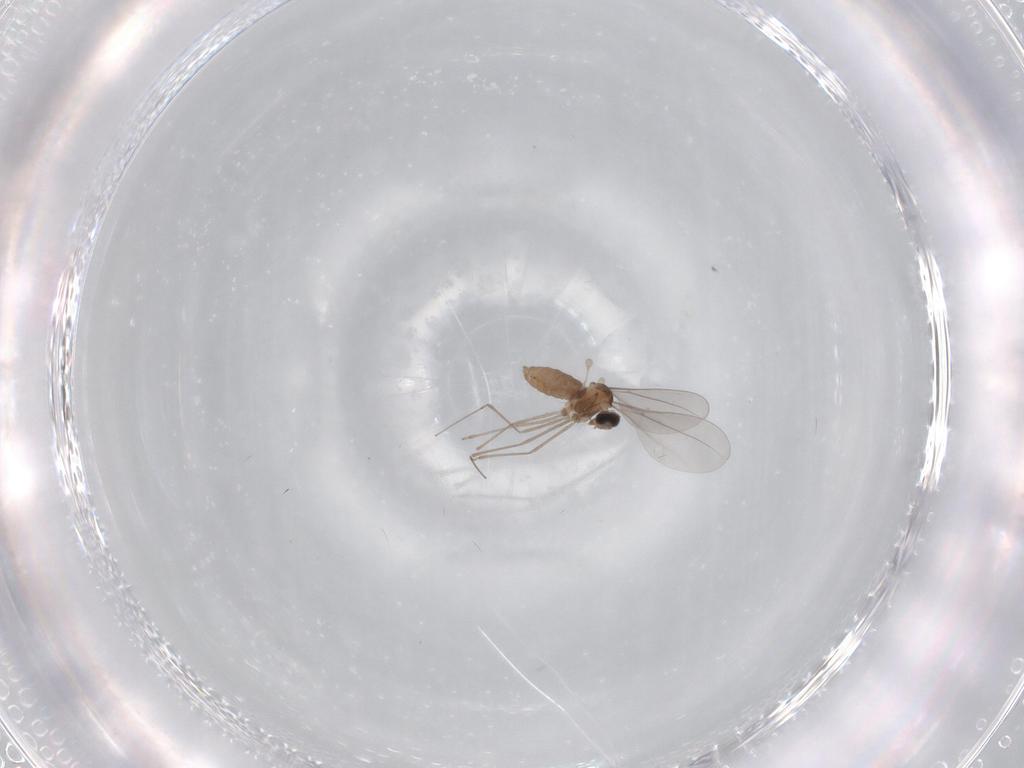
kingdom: Animalia
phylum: Arthropoda
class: Insecta
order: Diptera
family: Cecidomyiidae
